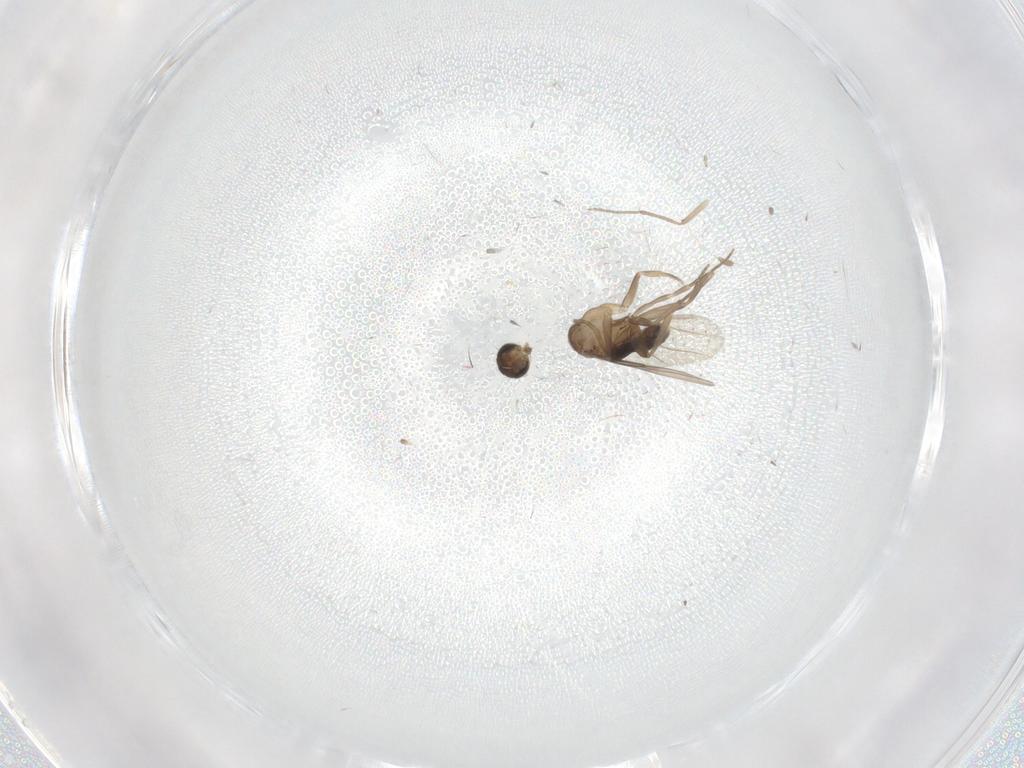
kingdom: Animalia
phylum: Arthropoda
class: Insecta
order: Diptera
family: Phoridae
